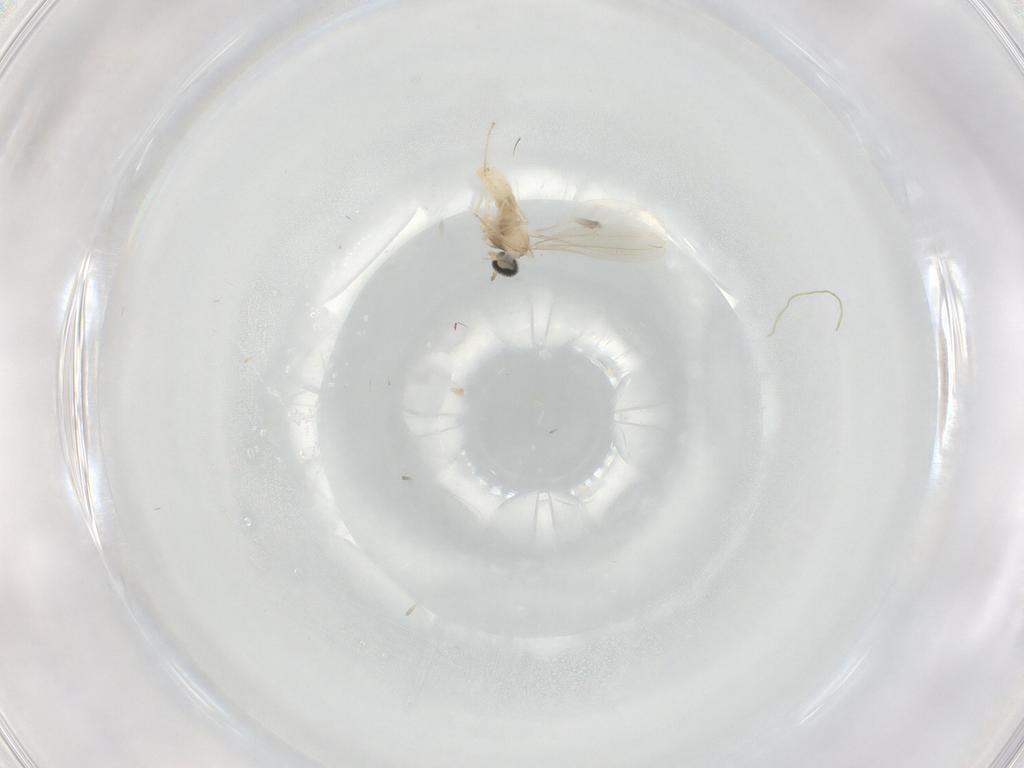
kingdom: Animalia
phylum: Arthropoda
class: Insecta
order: Diptera
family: Cecidomyiidae
